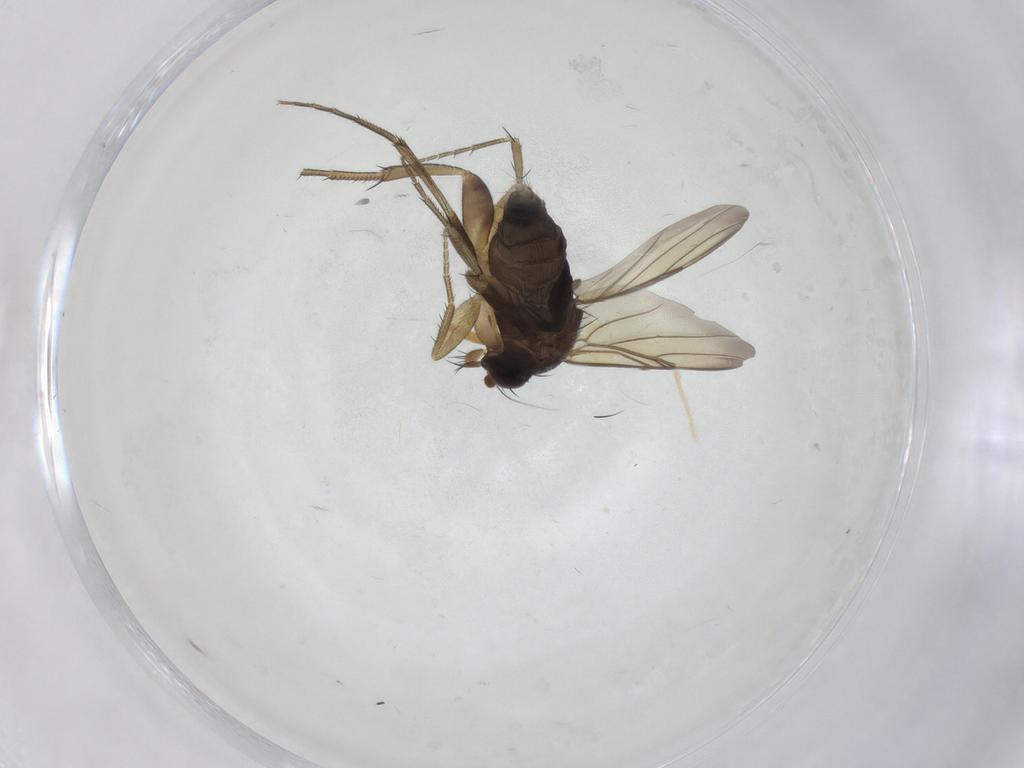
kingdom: Animalia
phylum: Arthropoda
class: Insecta
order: Diptera
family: Phoridae
